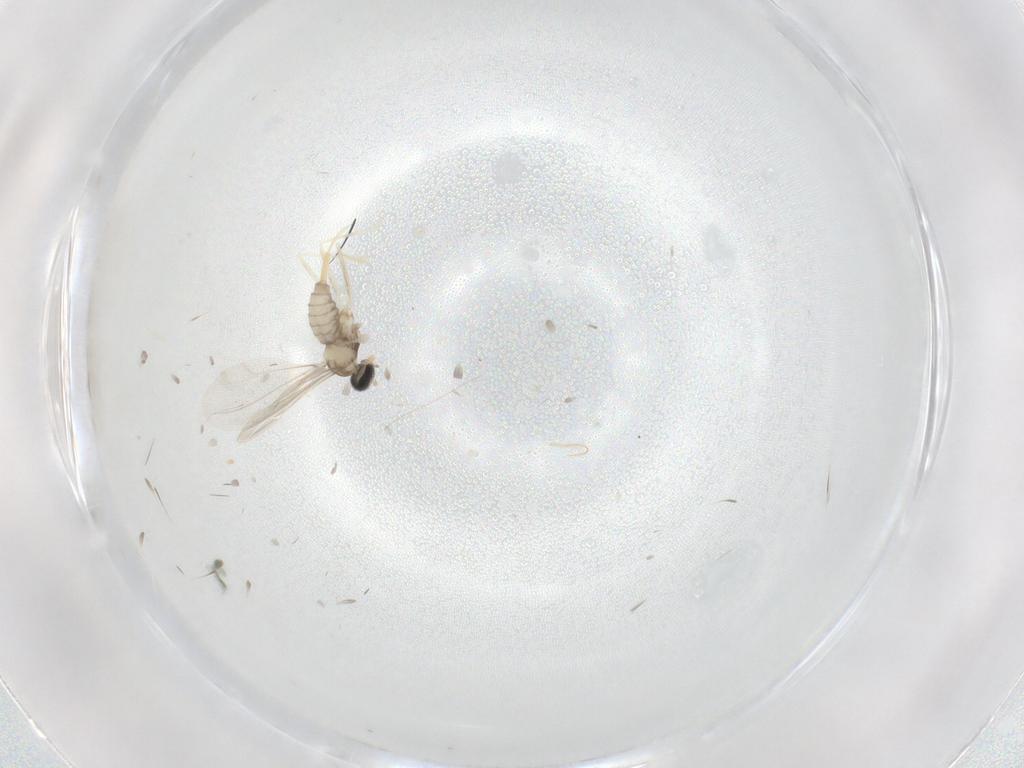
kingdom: Animalia
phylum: Arthropoda
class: Insecta
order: Diptera
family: Cecidomyiidae
